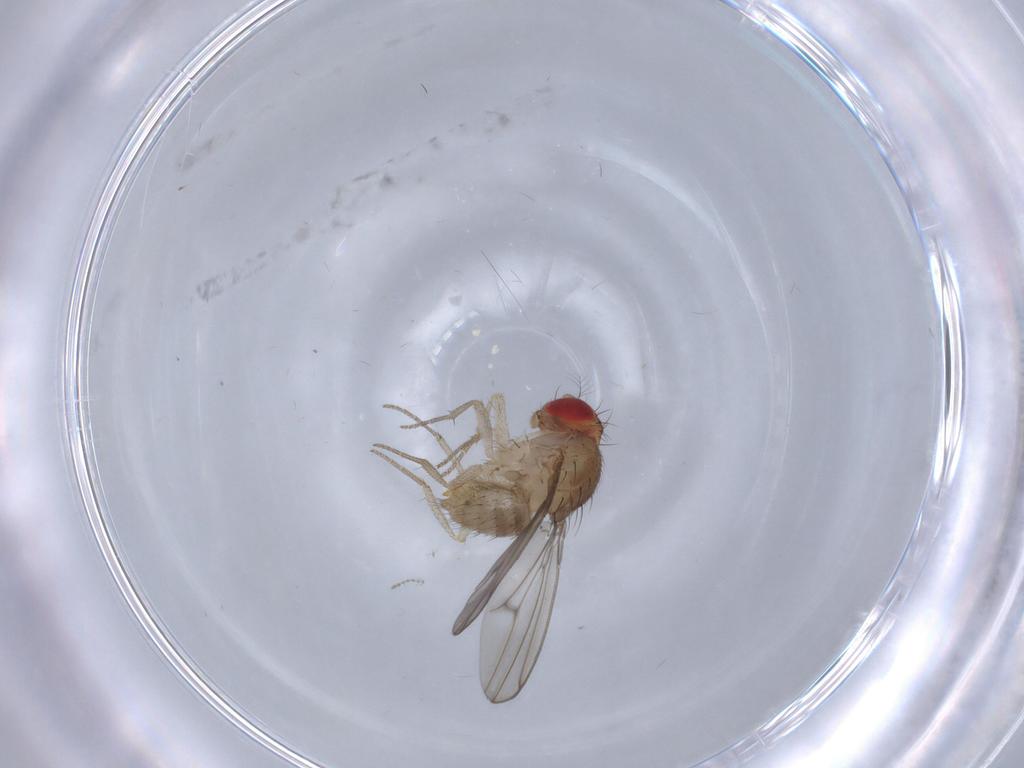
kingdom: Animalia
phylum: Arthropoda
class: Insecta
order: Diptera
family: Drosophilidae
